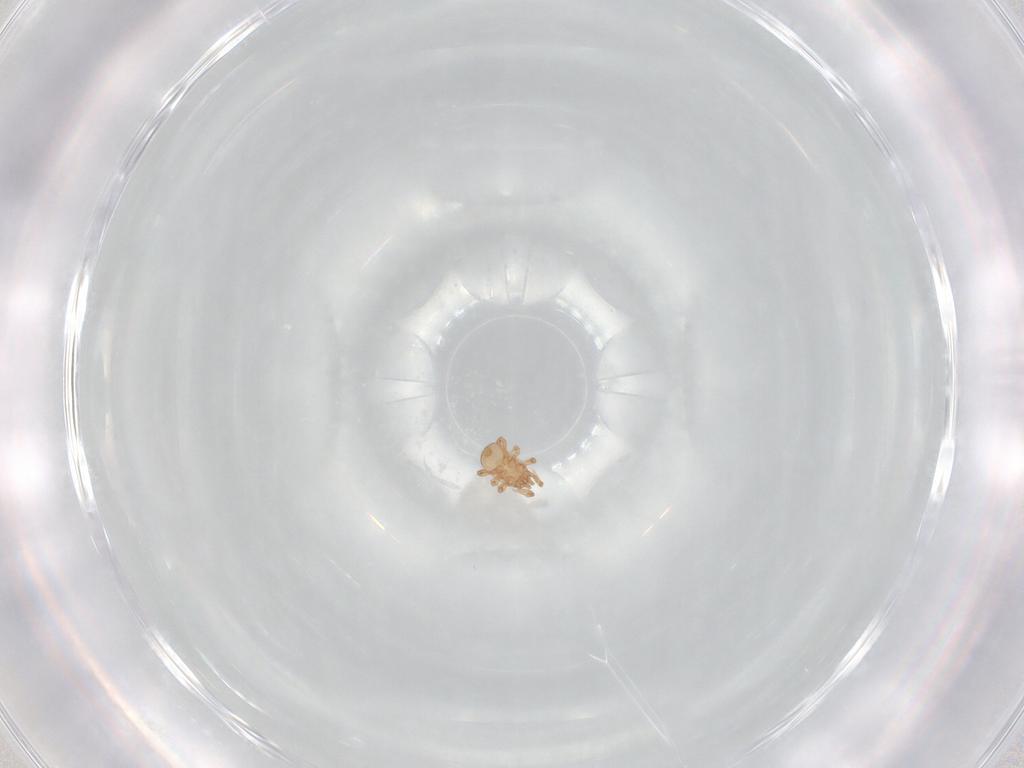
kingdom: Animalia
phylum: Arthropoda
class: Arachnida
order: Mesostigmata
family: Ascidae
